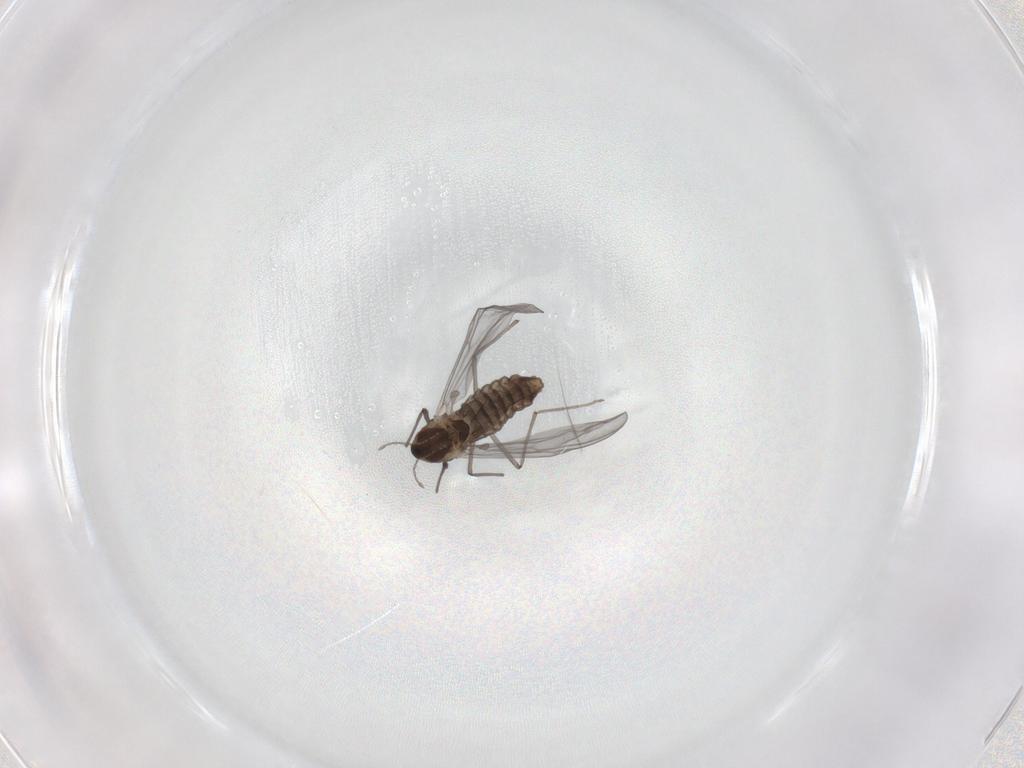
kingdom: Animalia
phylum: Arthropoda
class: Insecta
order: Diptera
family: Chironomidae
